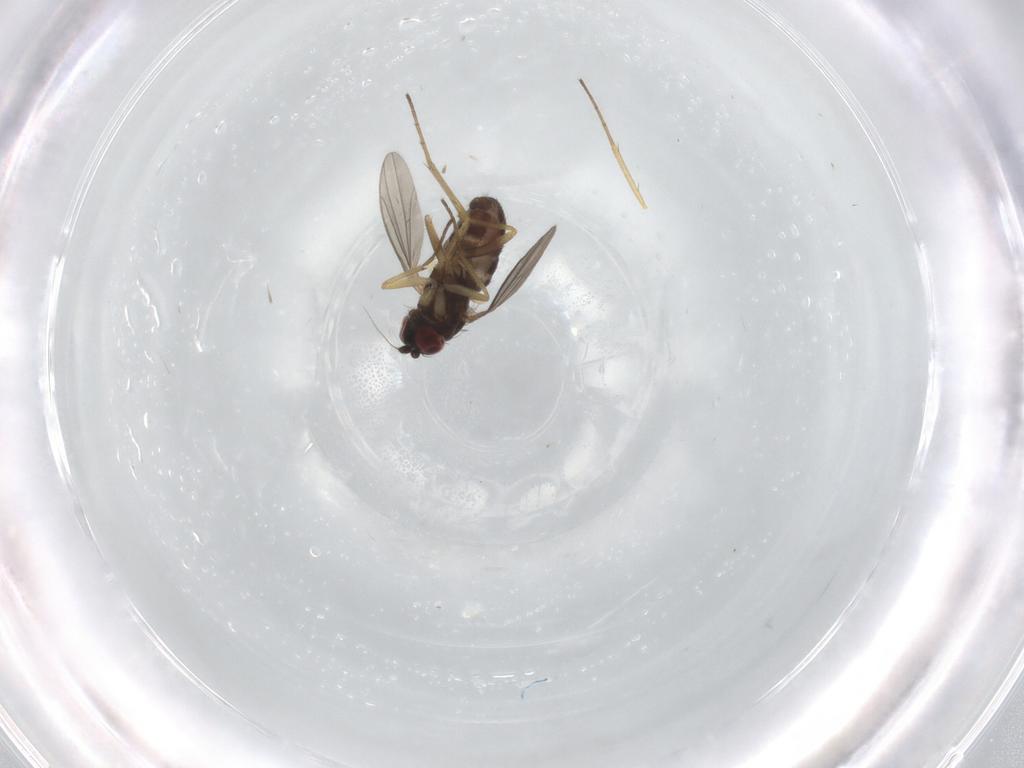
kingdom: Animalia
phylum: Arthropoda
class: Insecta
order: Diptera
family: Dolichopodidae
